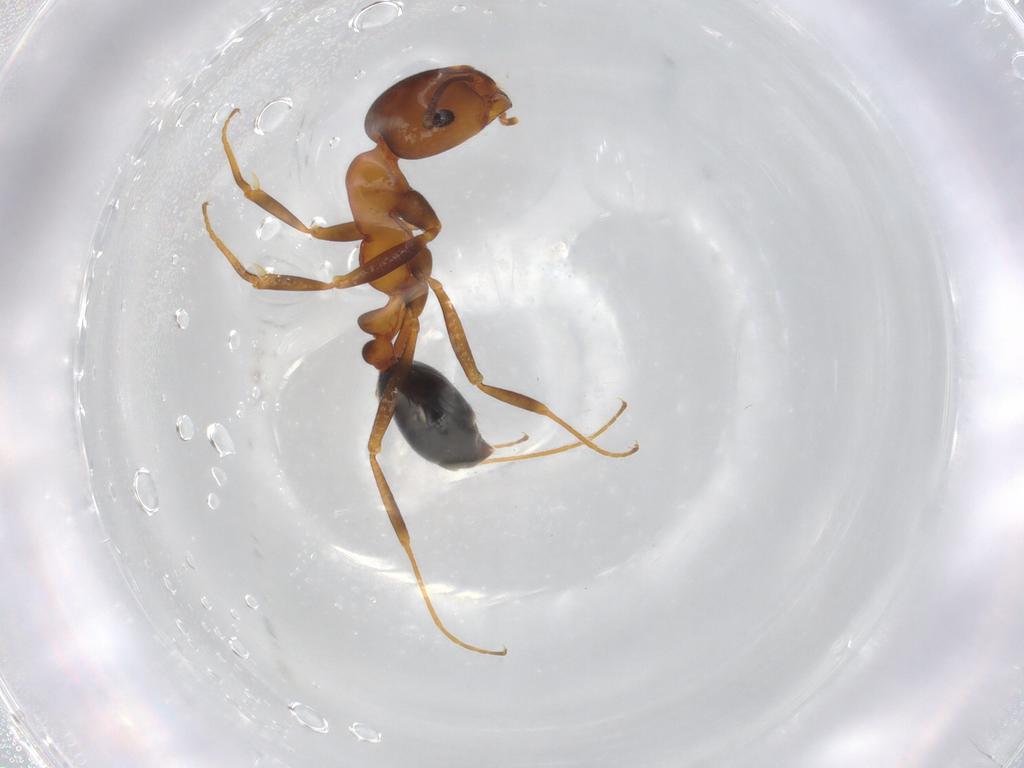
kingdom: Animalia
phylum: Arthropoda
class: Insecta
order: Hymenoptera
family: Formicidae
